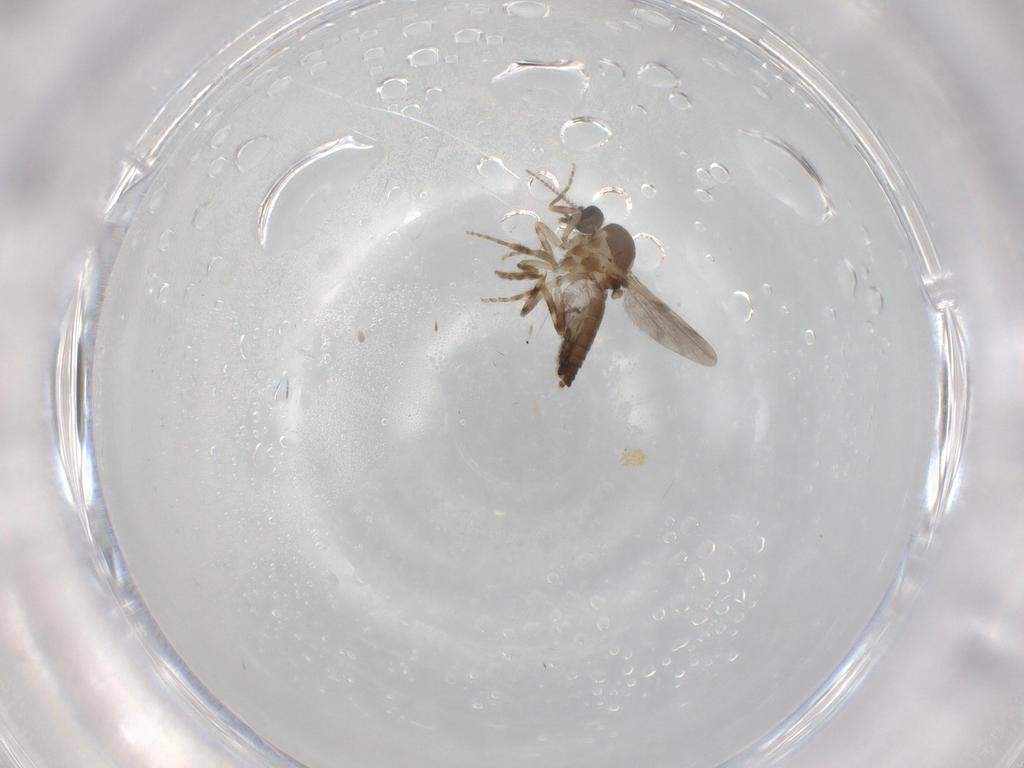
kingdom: Animalia
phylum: Arthropoda
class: Insecta
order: Diptera
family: Ceratopogonidae
